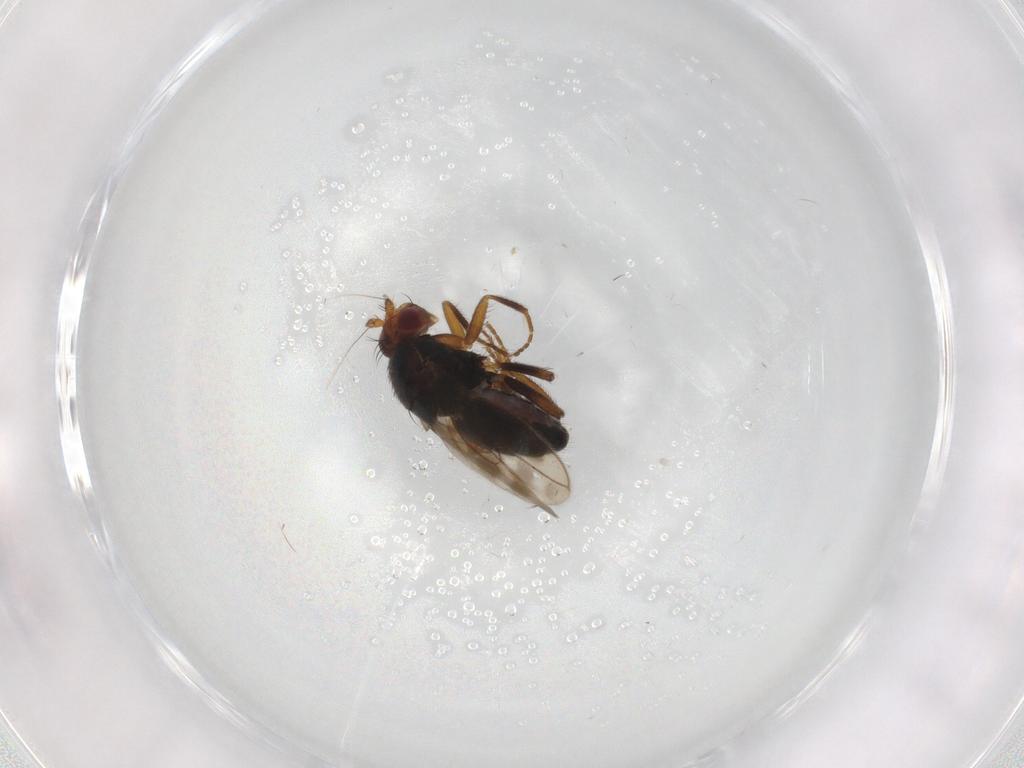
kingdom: Animalia
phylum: Arthropoda
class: Insecta
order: Diptera
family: Sphaeroceridae
